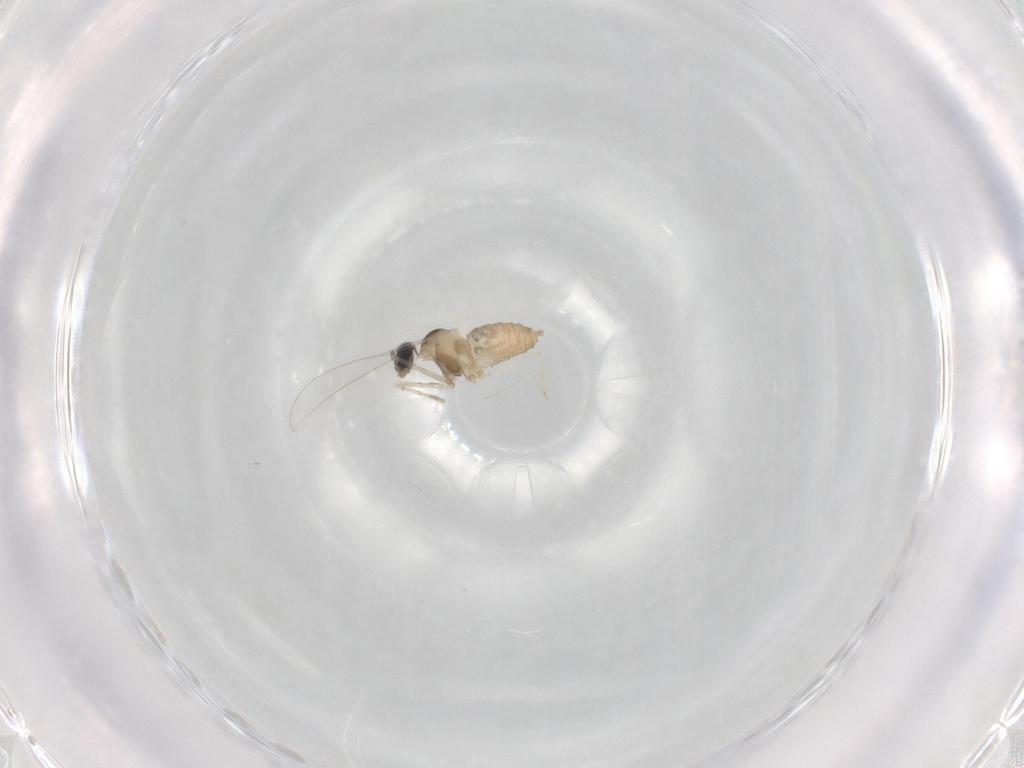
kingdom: Animalia
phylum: Arthropoda
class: Insecta
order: Diptera
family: Cecidomyiidae
